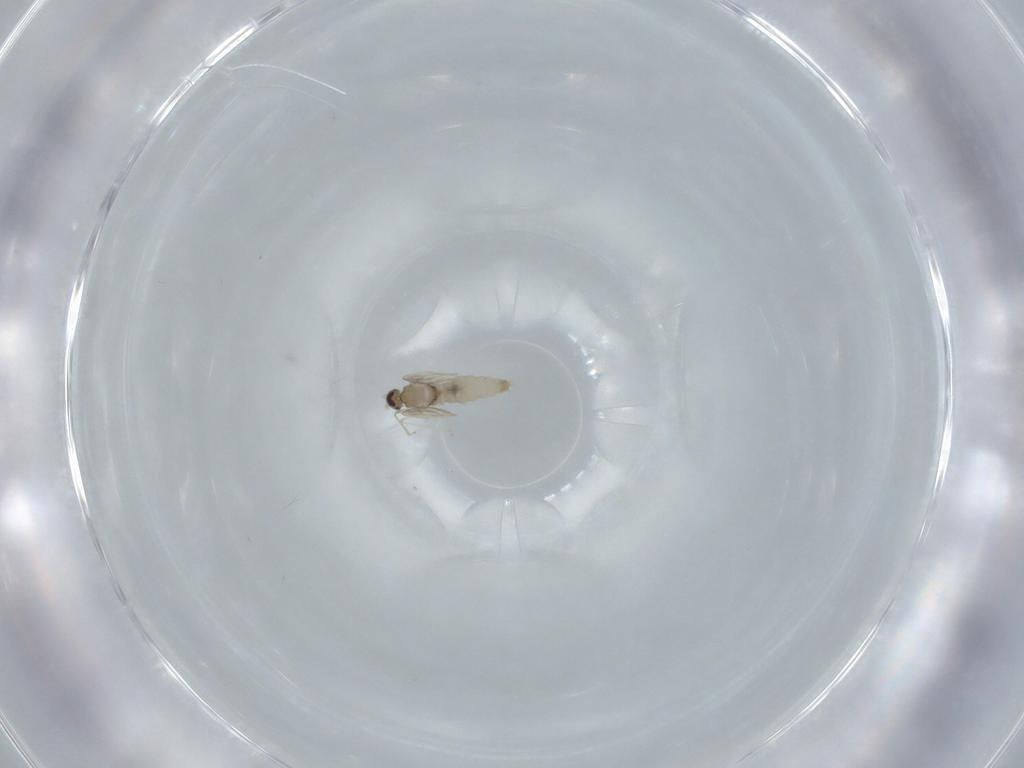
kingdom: Animalia
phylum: Arthropoda
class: Insecta
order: Diptera
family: Cecidomyiidae
